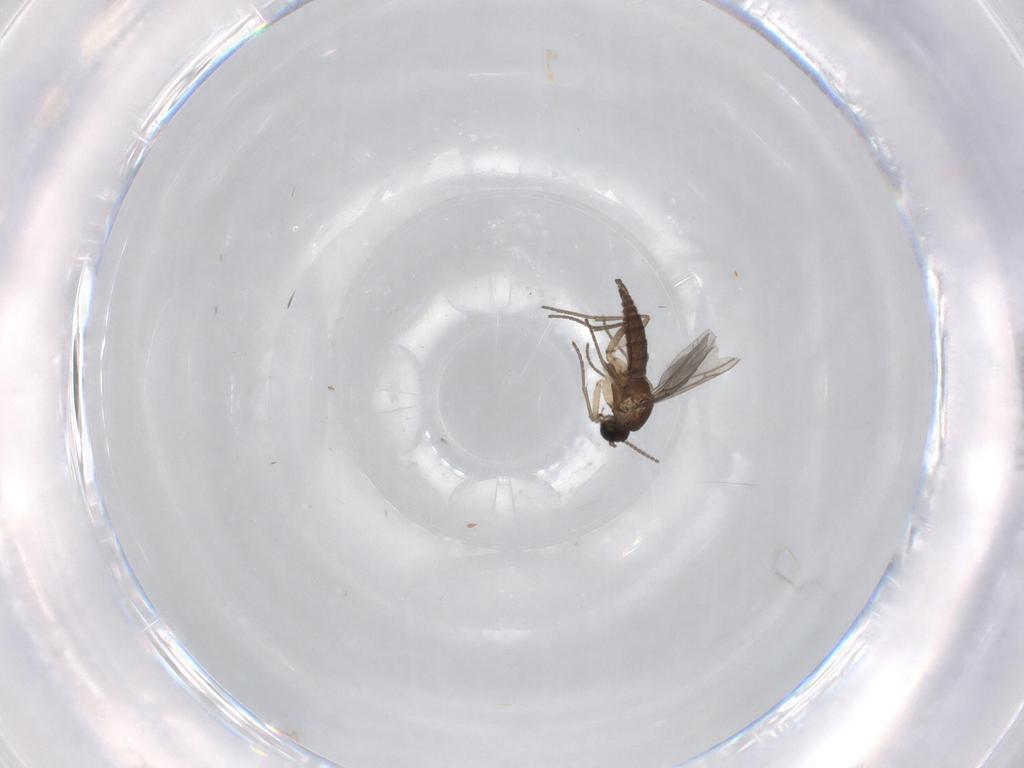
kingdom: Animalia
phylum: Arthropoda
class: Insecta
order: Diptera
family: Sciaridae
